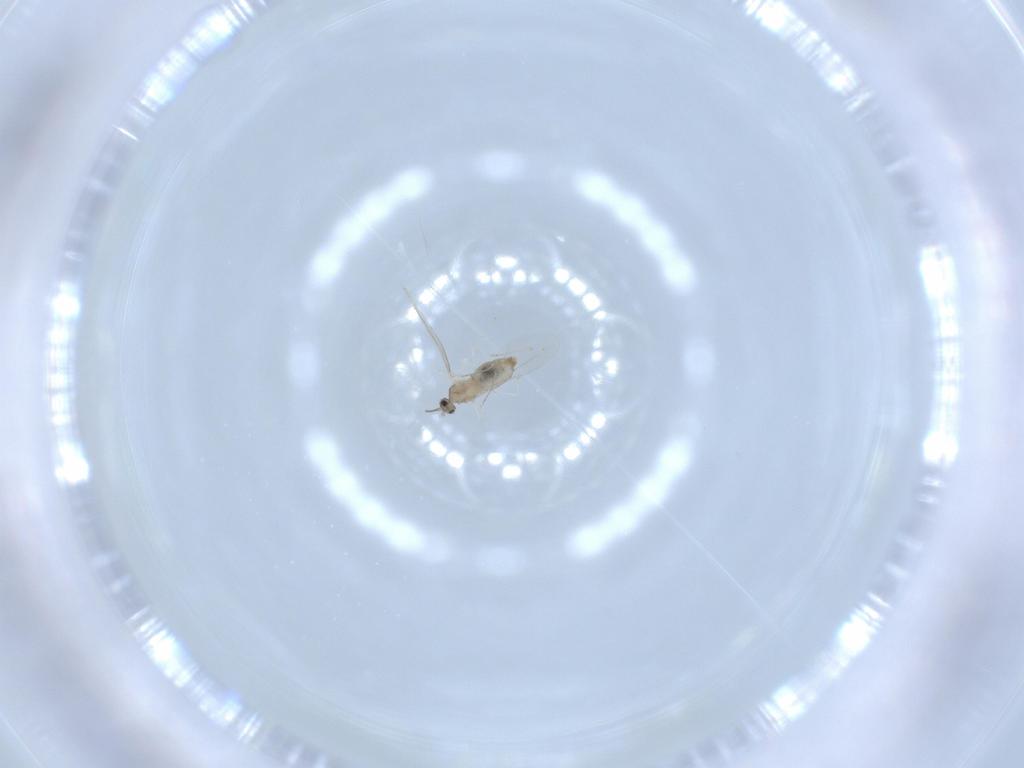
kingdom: Animalia
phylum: Arthropoda
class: Insecta
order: Diptera
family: Cecidomyiidae
